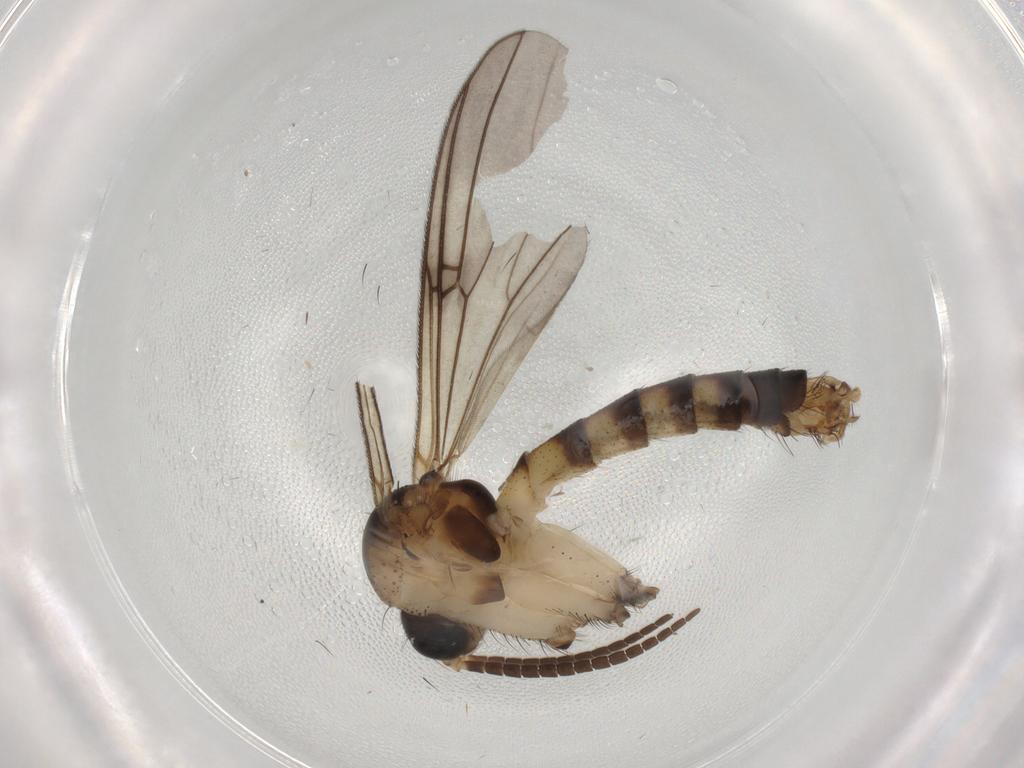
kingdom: Animalia
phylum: Arthropoda
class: Insecta
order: Diptera
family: Sciaridae
